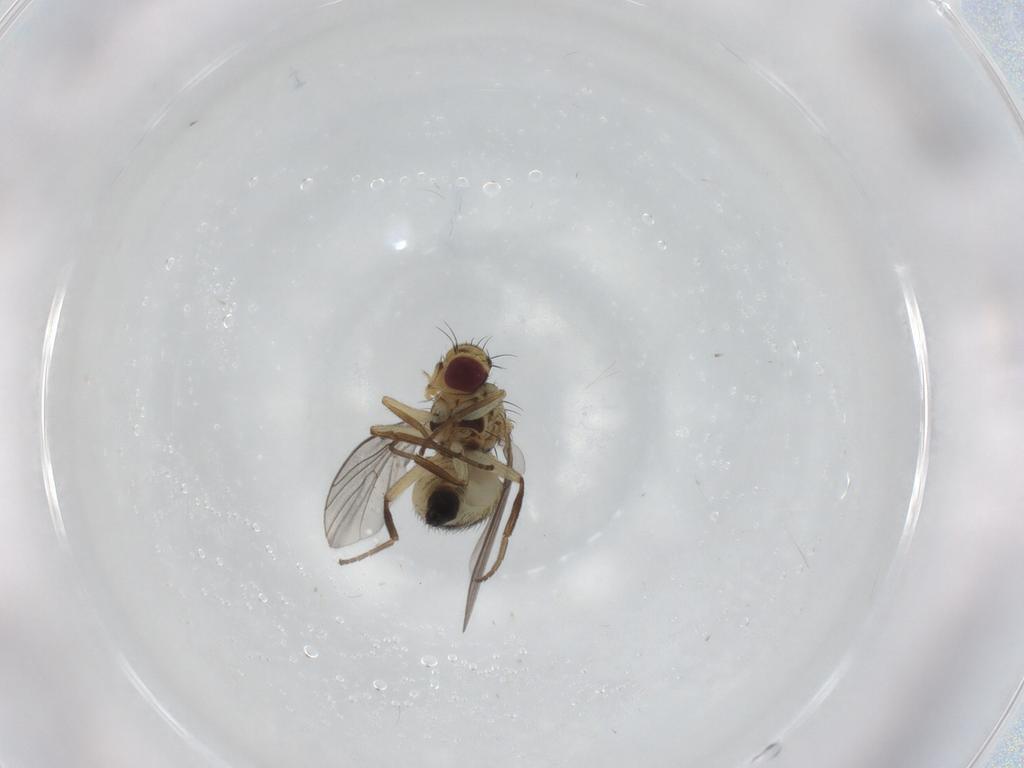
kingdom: Animalia
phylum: Arthropoda
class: Insecta
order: Diptera
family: Agromyzidae
